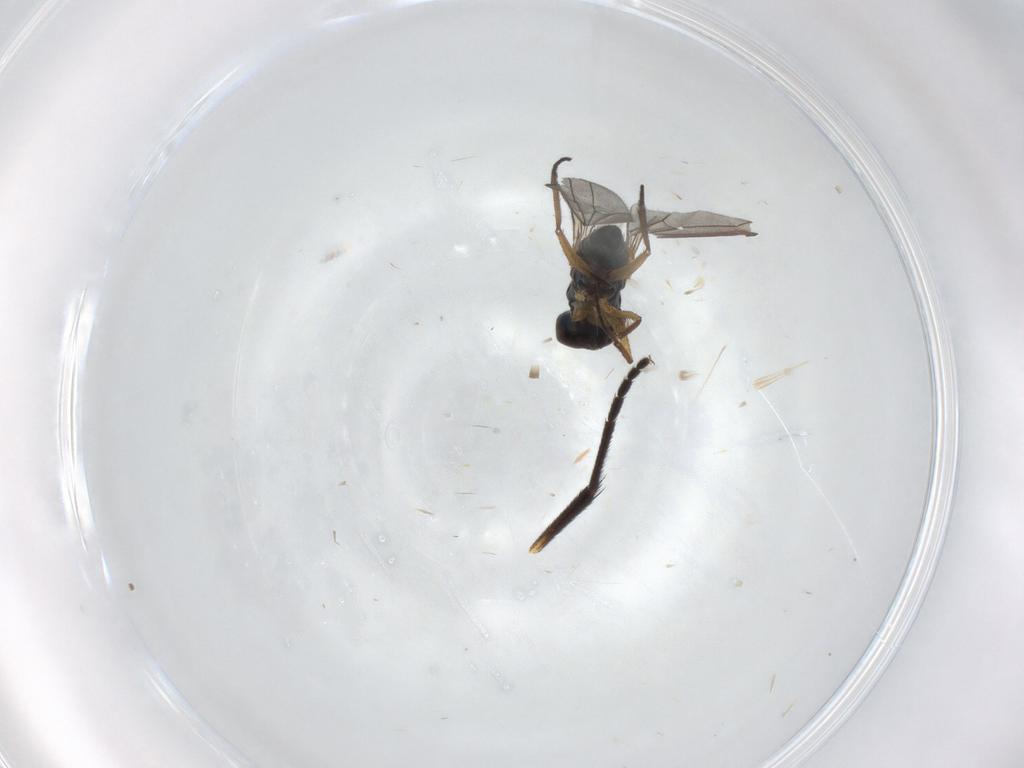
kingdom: Animalia
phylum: Arthropoda
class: Insecta
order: Diptera
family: Dolichopodidae
